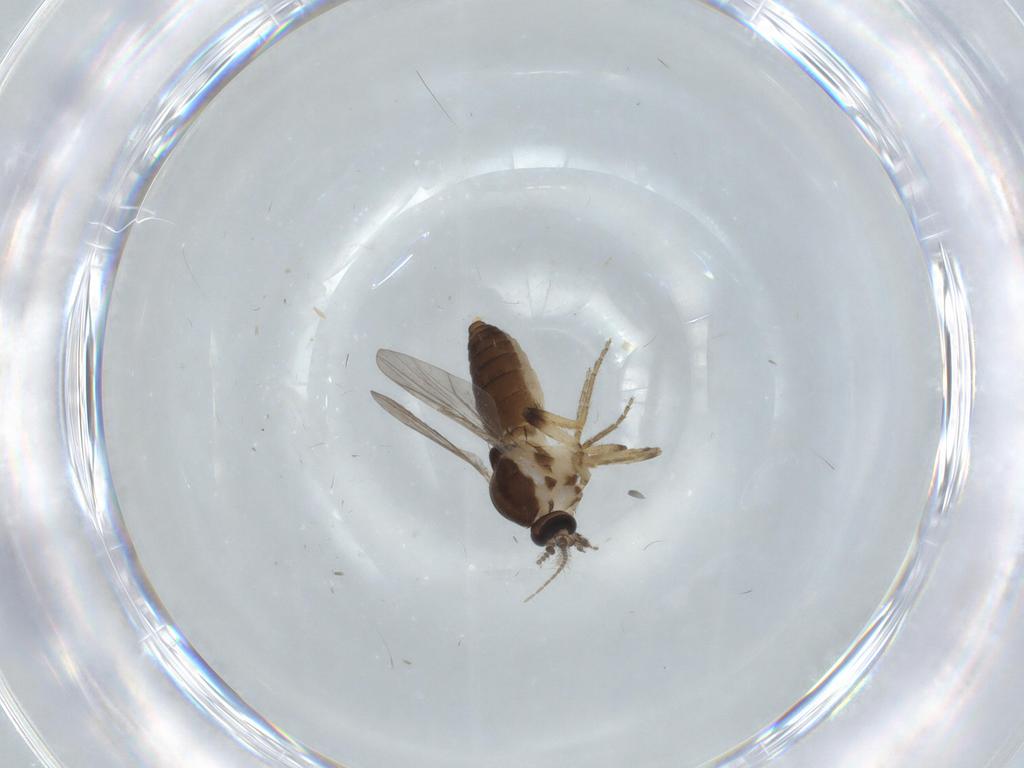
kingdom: Animalia
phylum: Arthropoda
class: Insecta
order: Diptera
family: Ceratopogonidae
